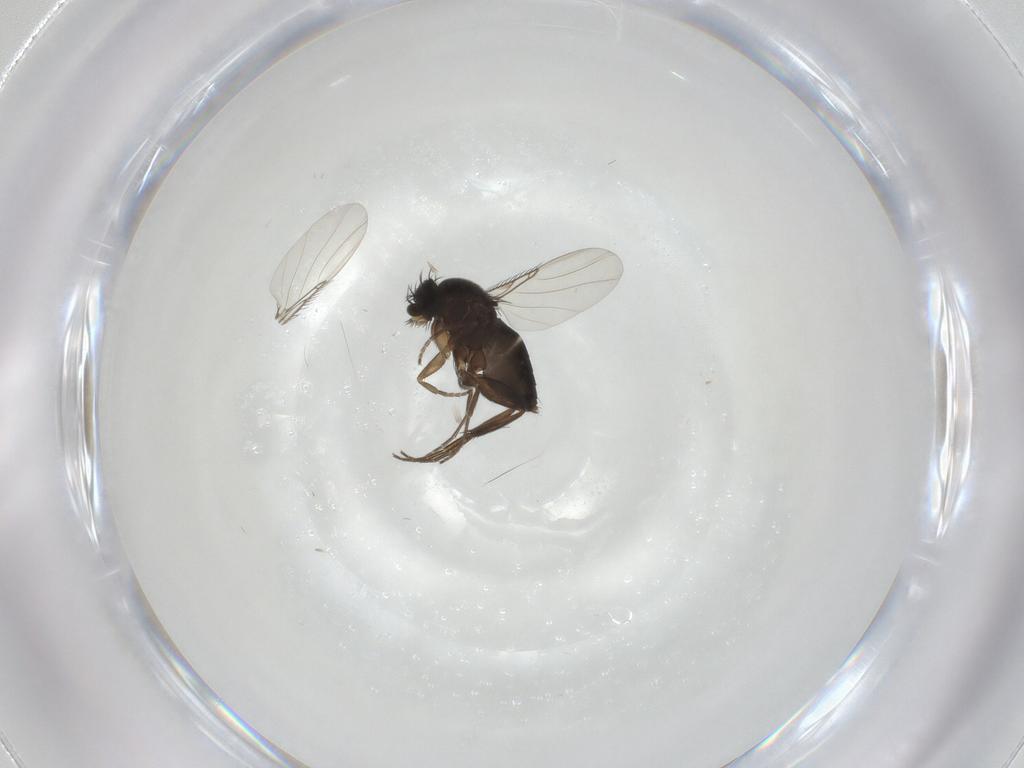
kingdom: Animalia
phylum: Arthropoda
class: Insecta
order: Diptera
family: Phoridae
